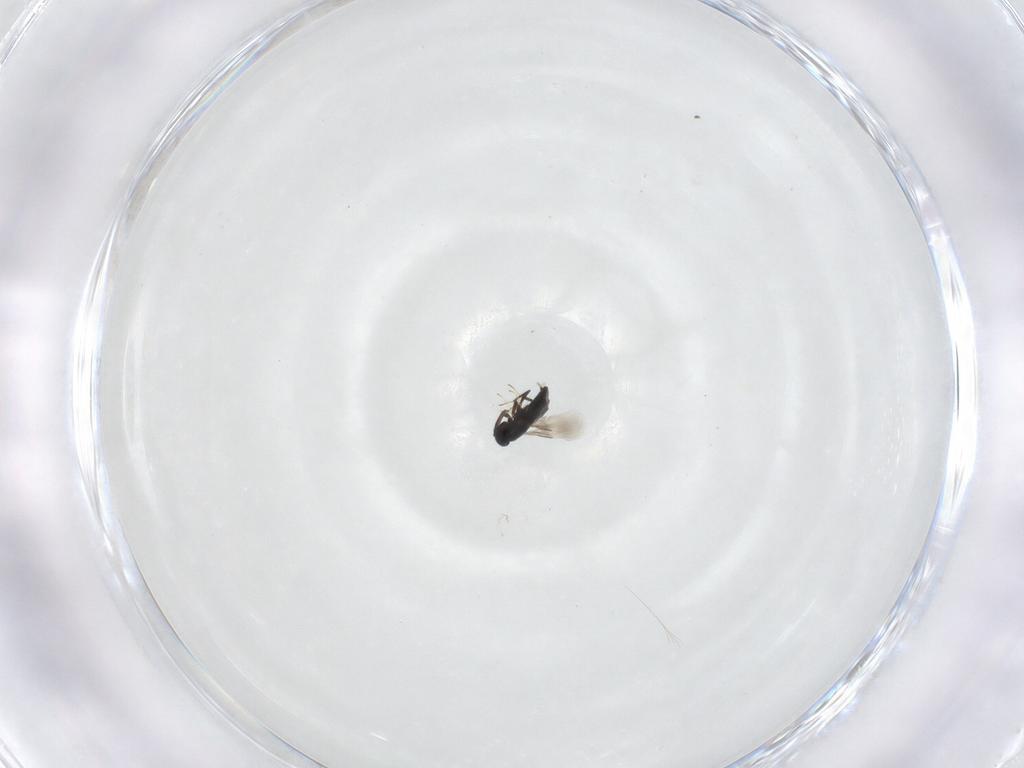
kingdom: Animalia
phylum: Arthropoda
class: Insecta
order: Hymenoptera
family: Signiphoridae
